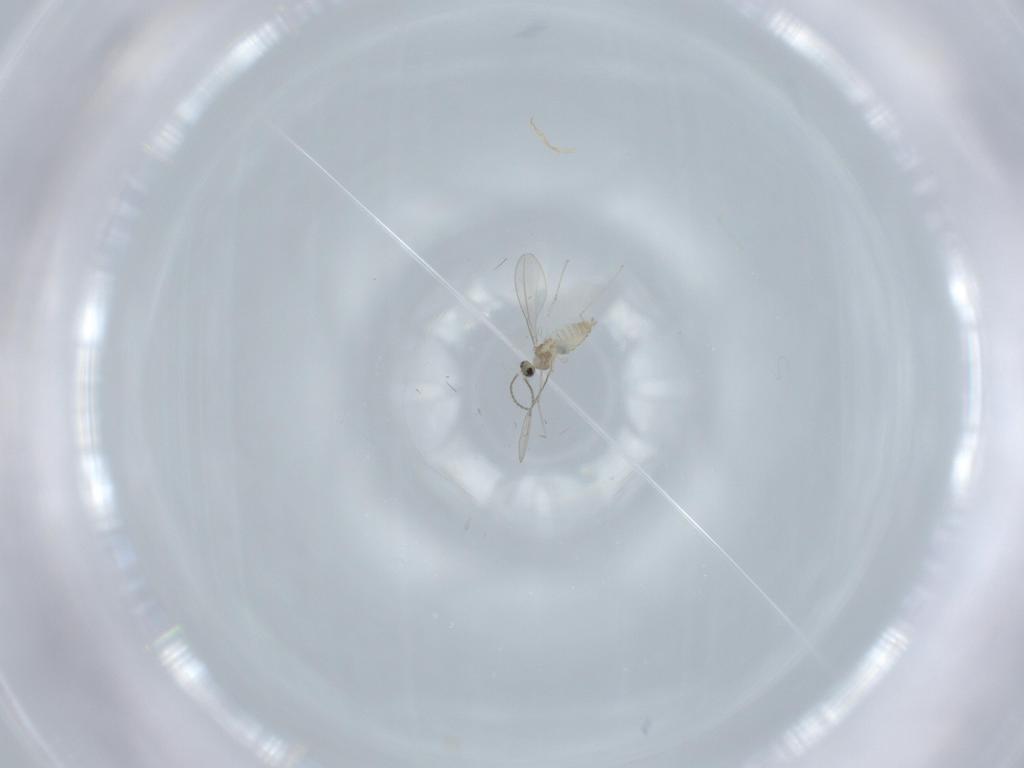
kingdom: Animalia
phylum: Arthropoda
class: Insecta
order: Diptera
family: Cecidomyiidae
